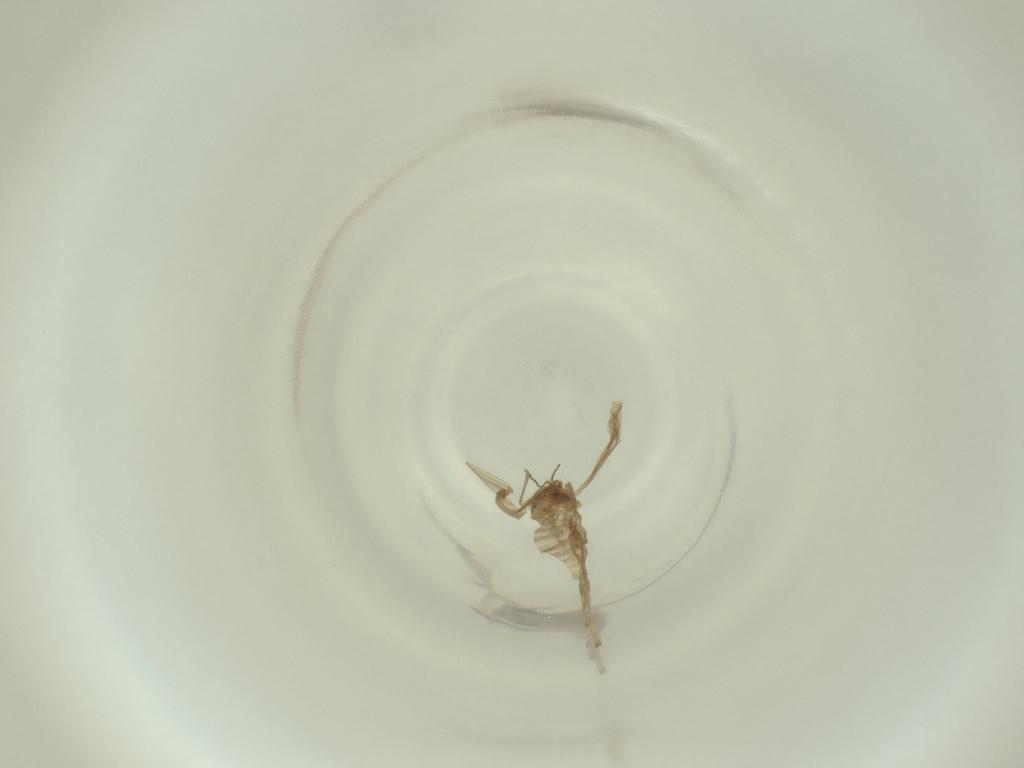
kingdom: Animalia
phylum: Arthropoda
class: Insecta
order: Diptera
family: Cecidomyiidae
